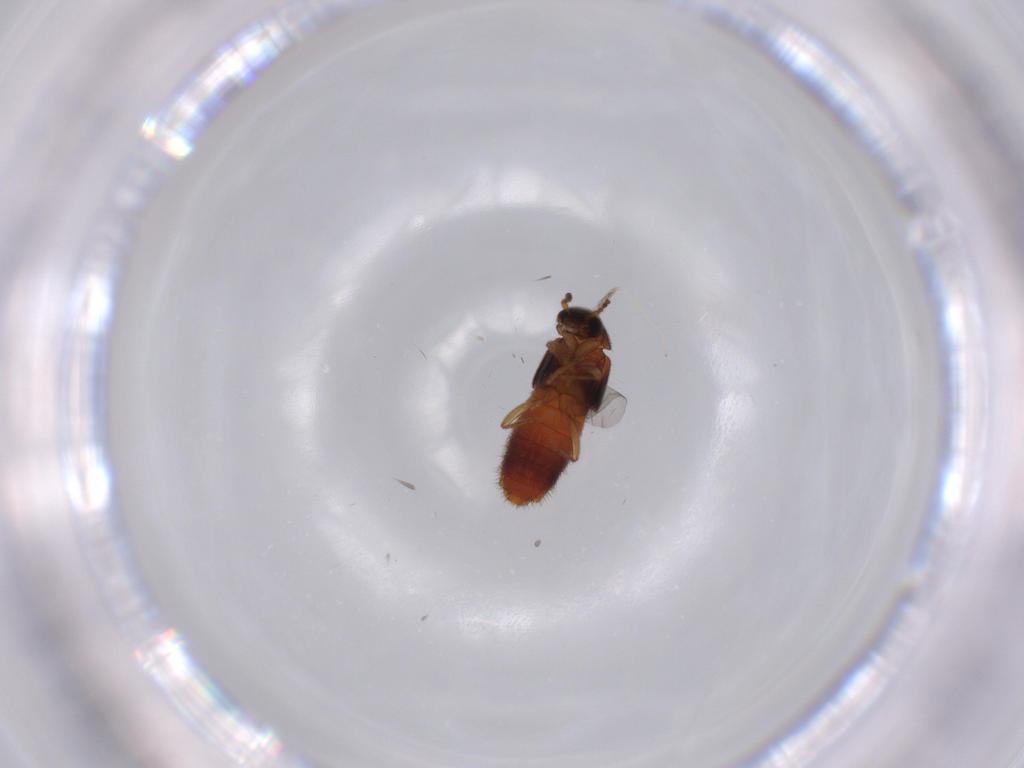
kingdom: Animalia
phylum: Arthropoda
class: Insecta
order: Coleoptera
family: Staphylinidae
